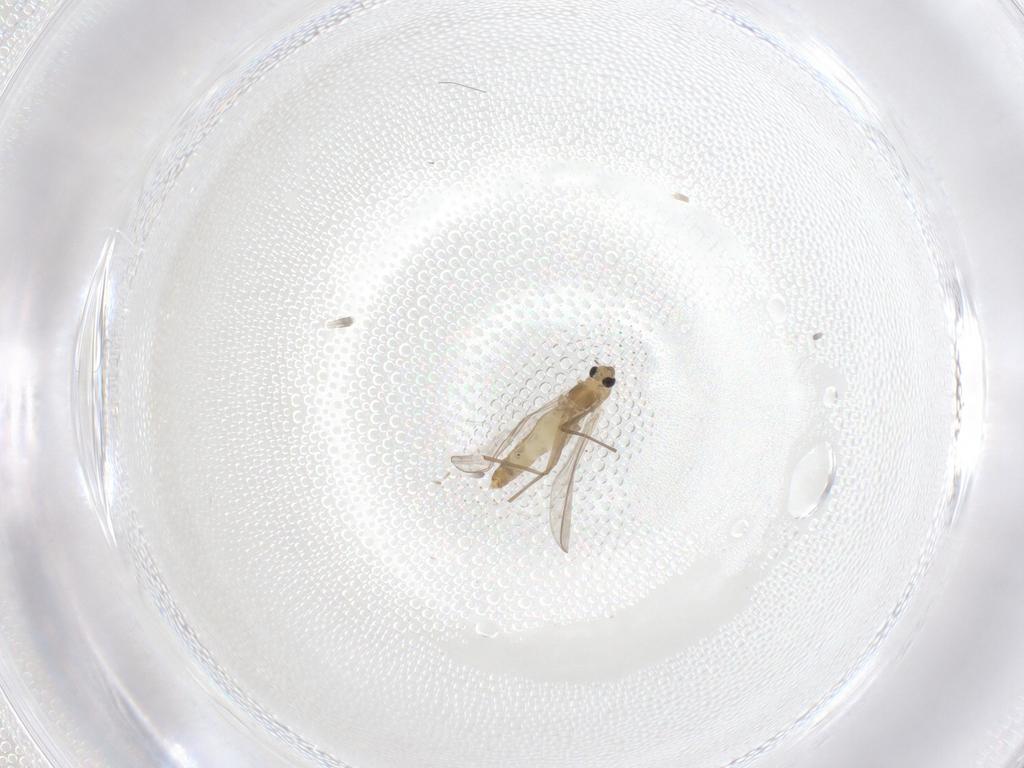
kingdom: Animalia
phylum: Arthropoda
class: Insecta
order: Diptera
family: Chironomidae
